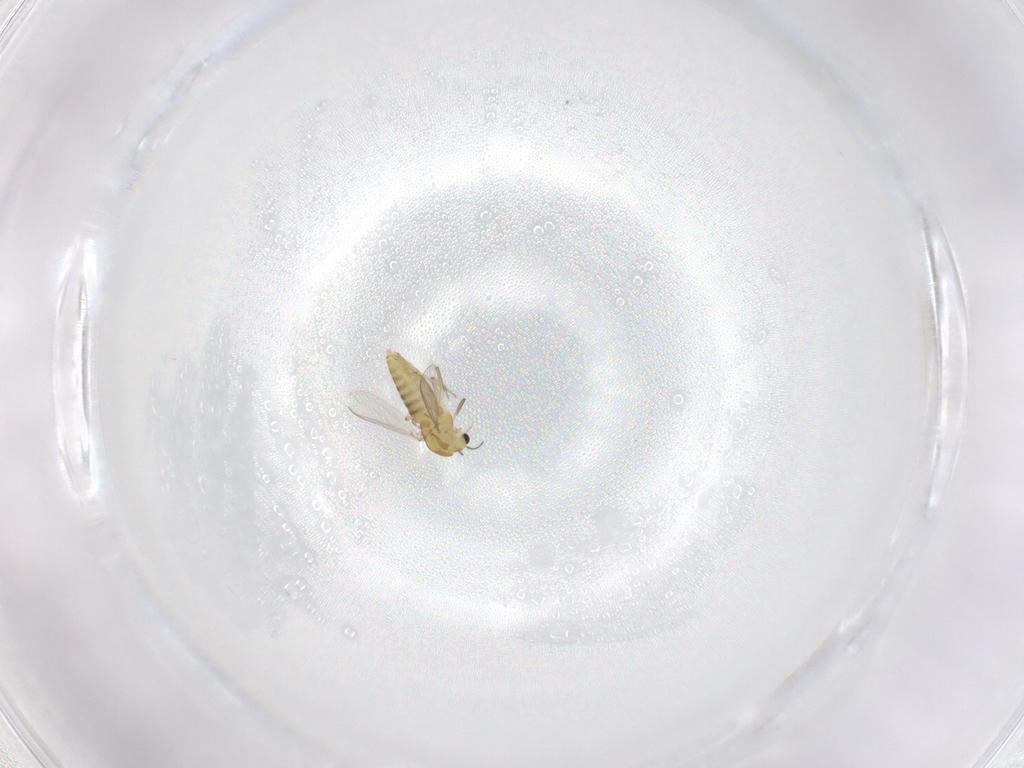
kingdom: Animalia
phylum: Arthropoda
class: Insecta
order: Diptera
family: Chironomidae
